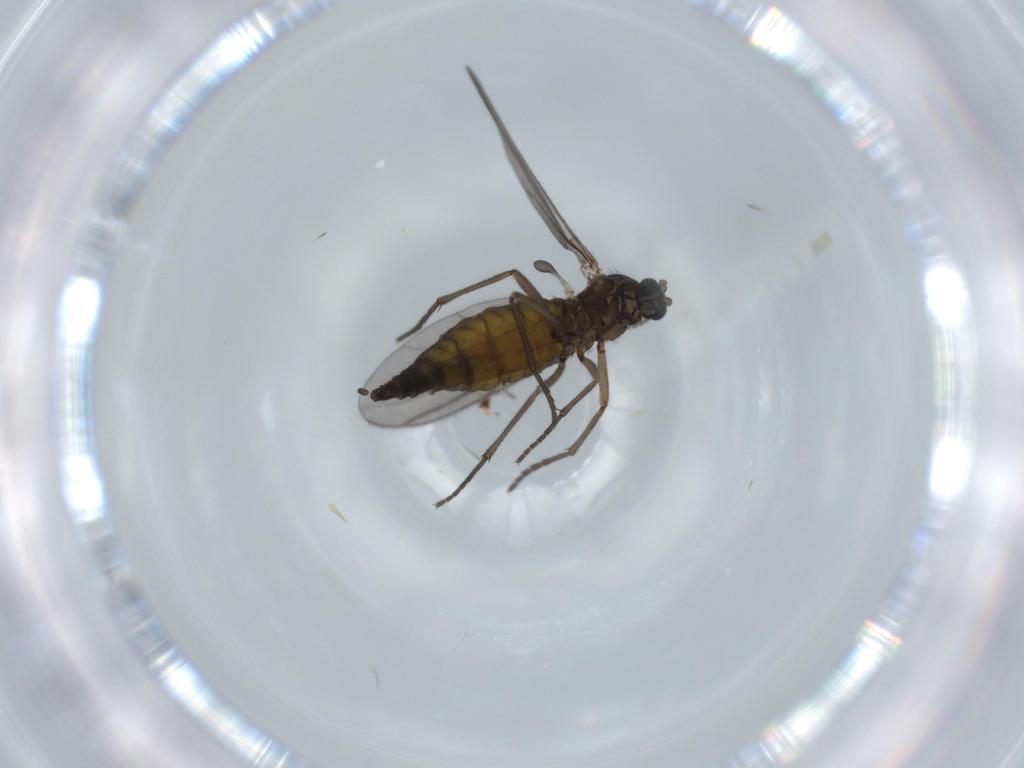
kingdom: Animalia
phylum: Arthropoda
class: Insecta
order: Diptera
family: Sciaridae
